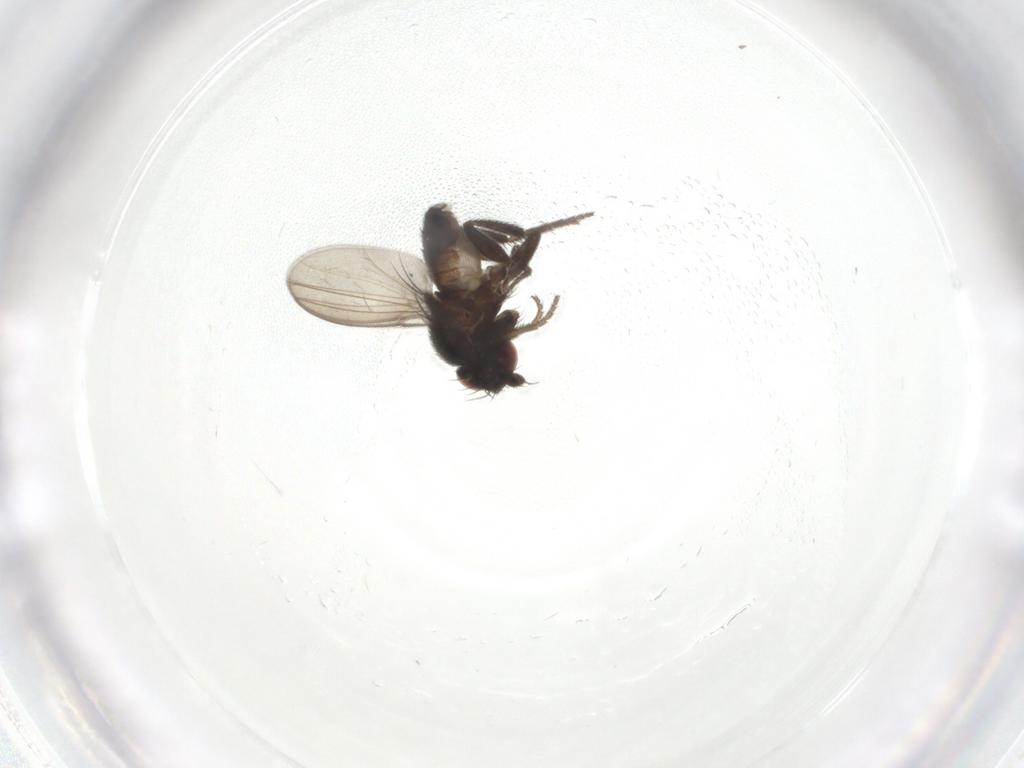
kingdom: Animalia
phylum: Arthropoda
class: Insecta
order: Diptera
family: Milichiidae
